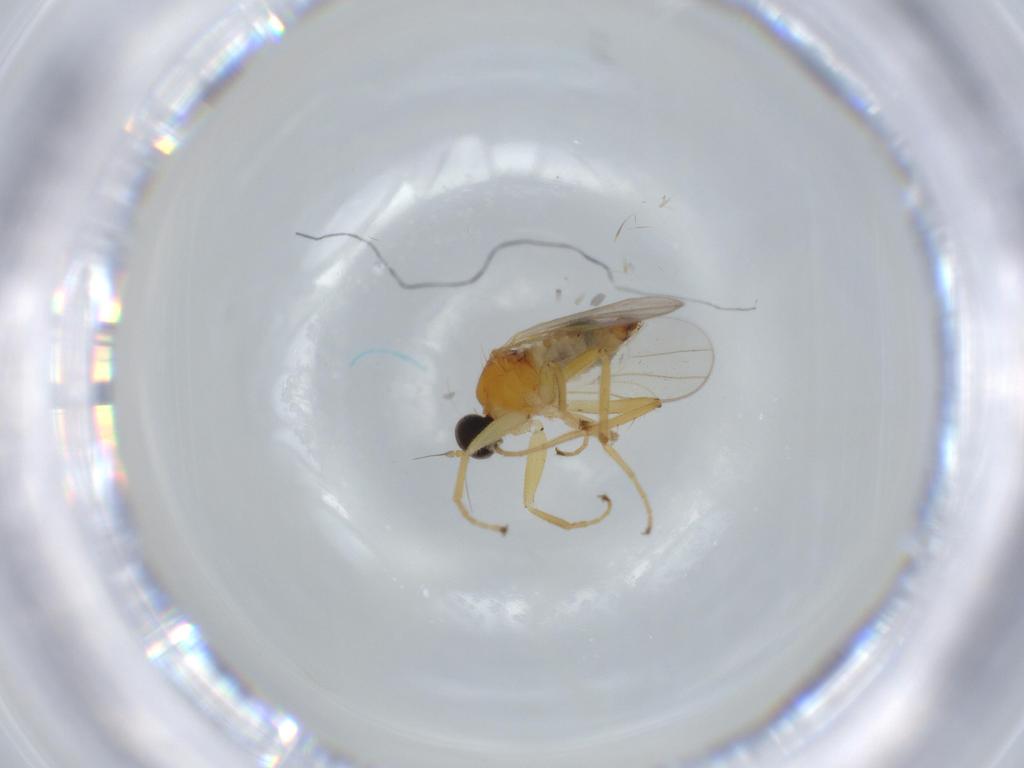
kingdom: Animalia
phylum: Arthropoda
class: Insecta
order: Diptera
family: Hybotidae
